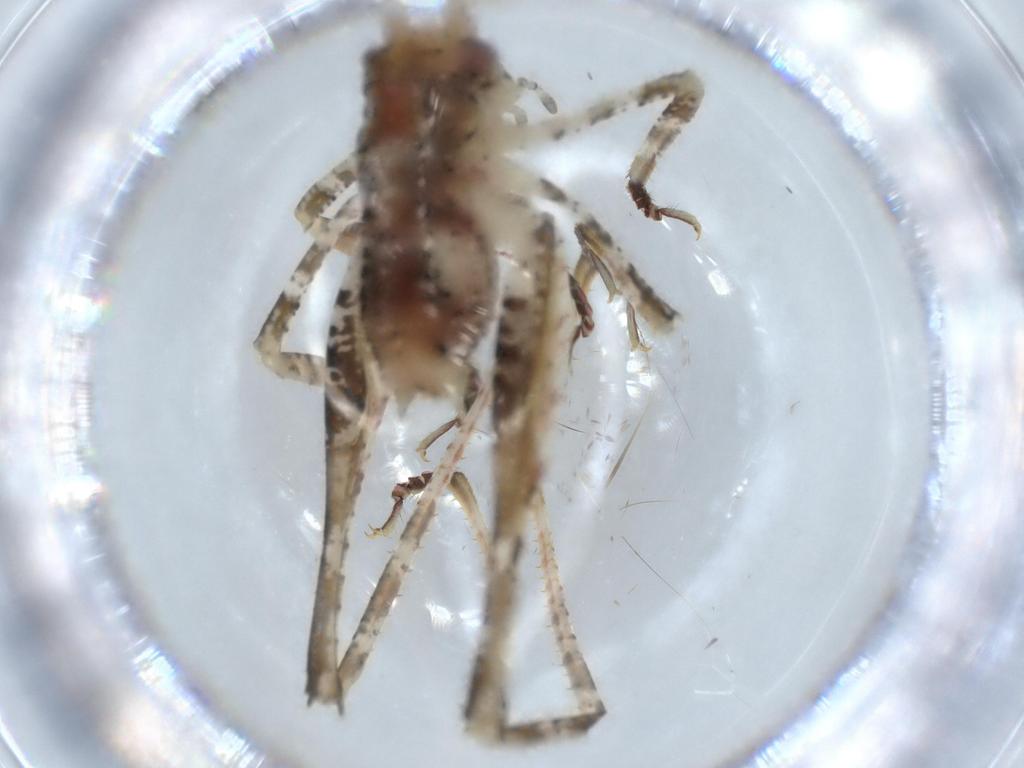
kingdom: Animalia
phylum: Arthropoda
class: Insecta
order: Orthoptera
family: Tettigoniidae
